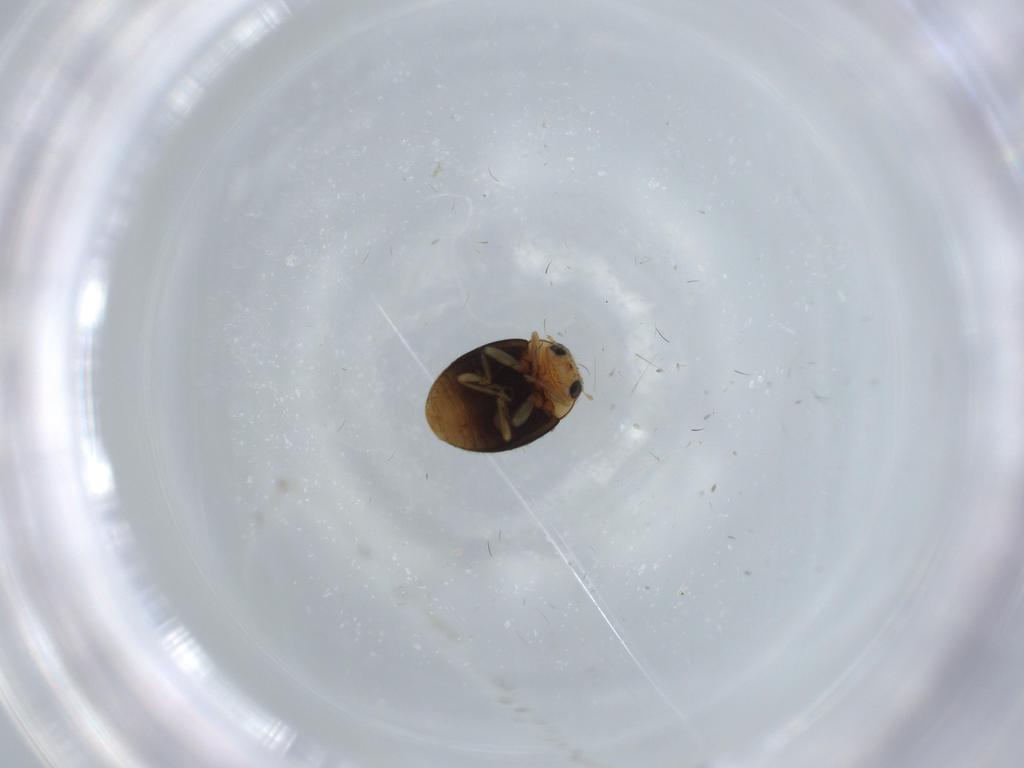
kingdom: Animalia
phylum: Arthropoda
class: Insecta
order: Coleoptera
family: Coccinellidae
